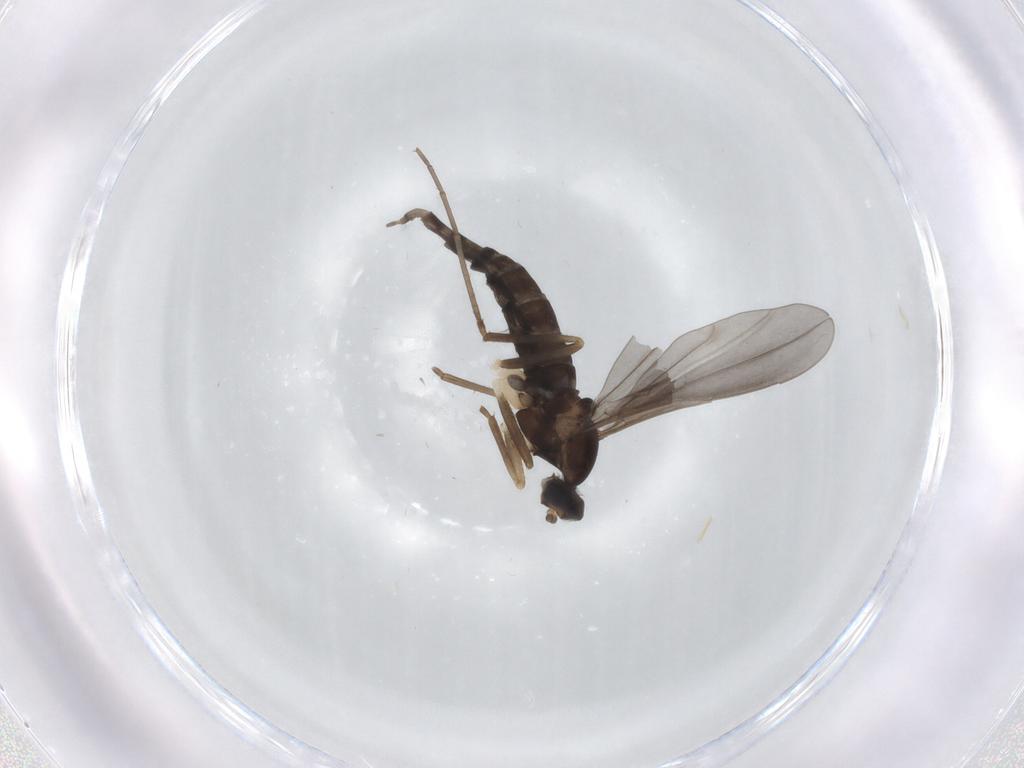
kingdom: Animalia
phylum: Arthropoda
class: Insecta
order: Diptera
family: Cecidomyiidae
